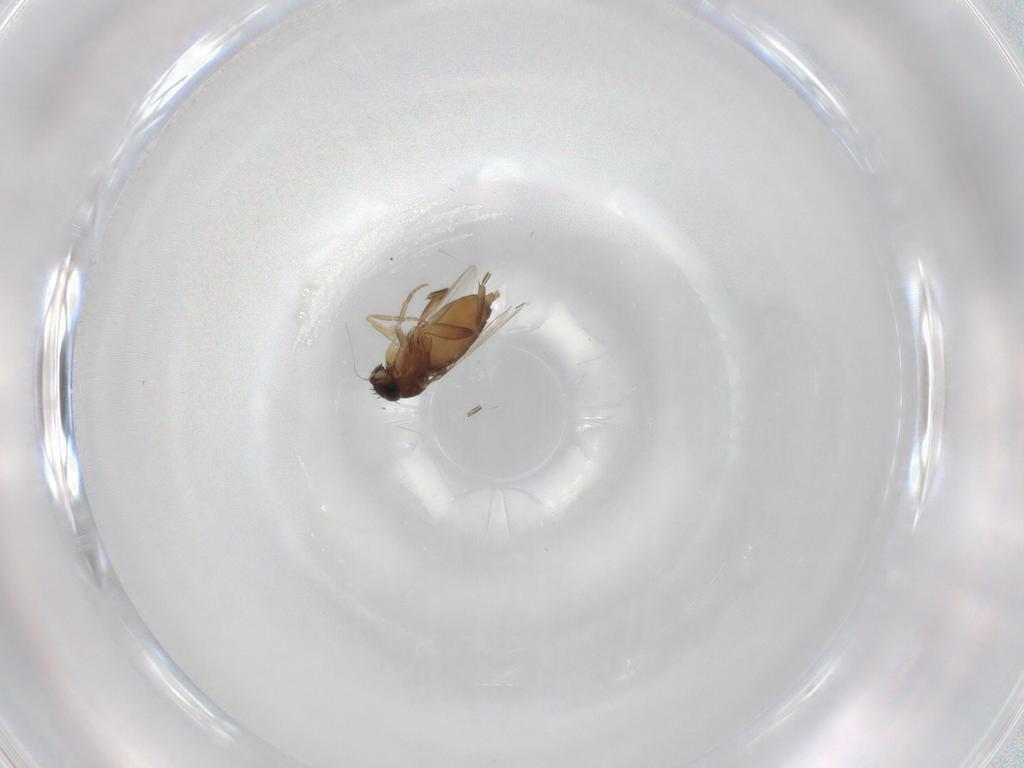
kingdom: Animalia
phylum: Arthropoda
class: Insecta
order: Diptera
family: Phoridae
